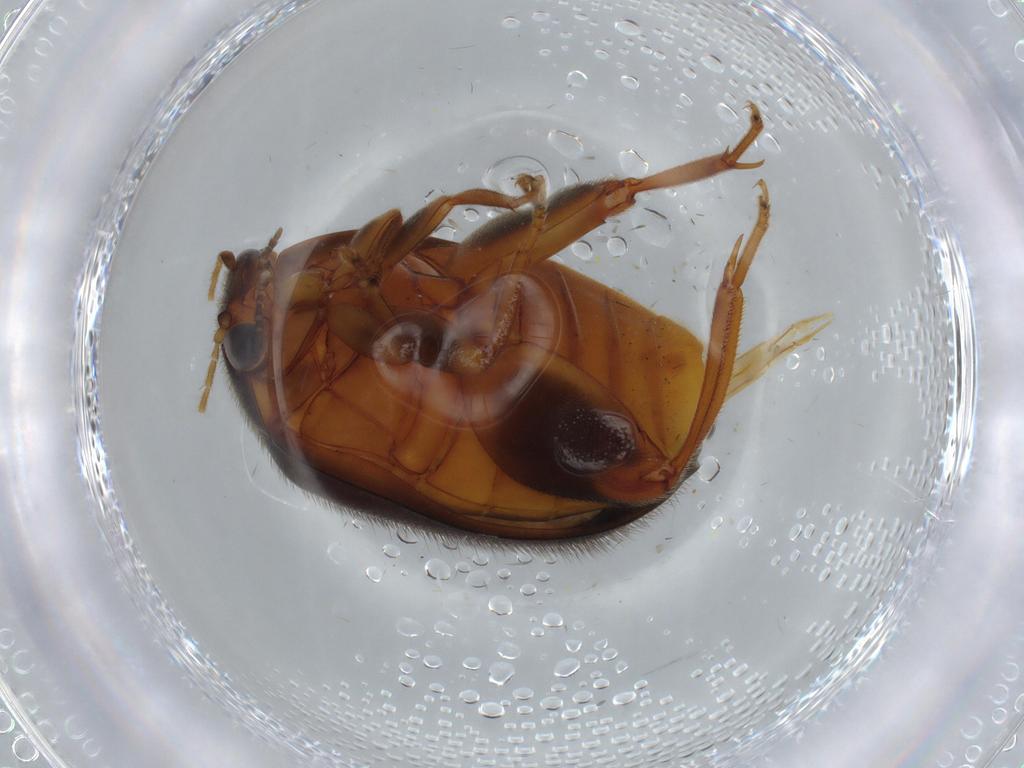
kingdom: Animalia
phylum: Arthropoda
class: Insecta
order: Coleoptera
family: Scirtidae
